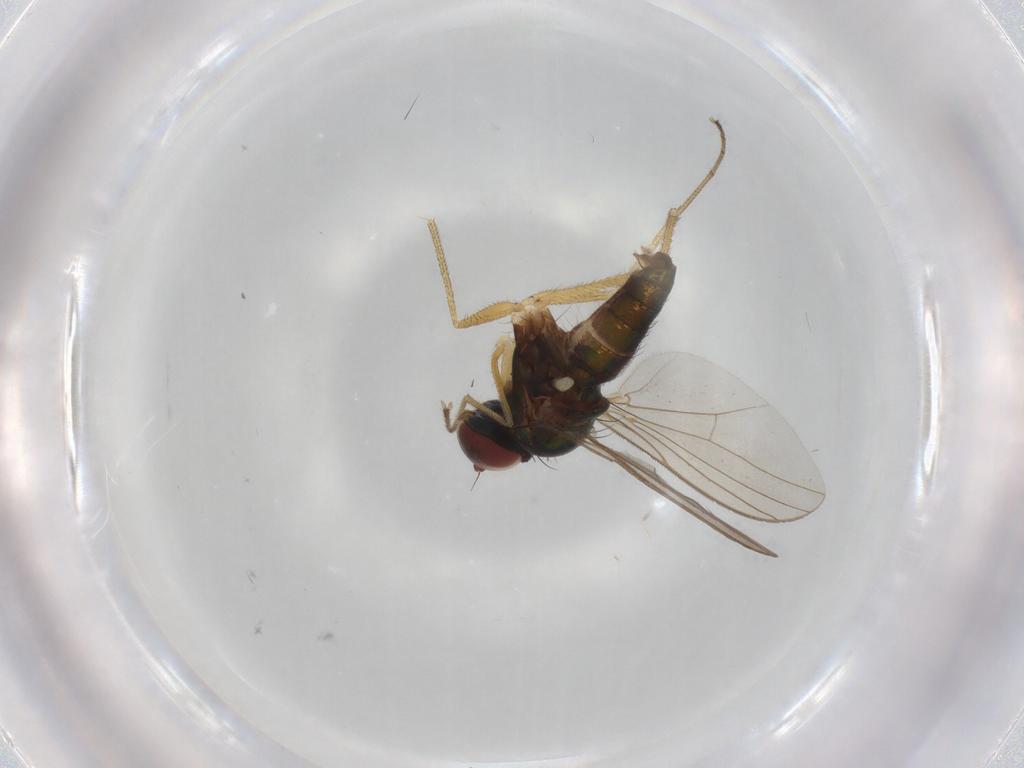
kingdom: Animalia
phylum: Arthropoda
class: Insecta
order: Diptera
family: Dolichopodidae
